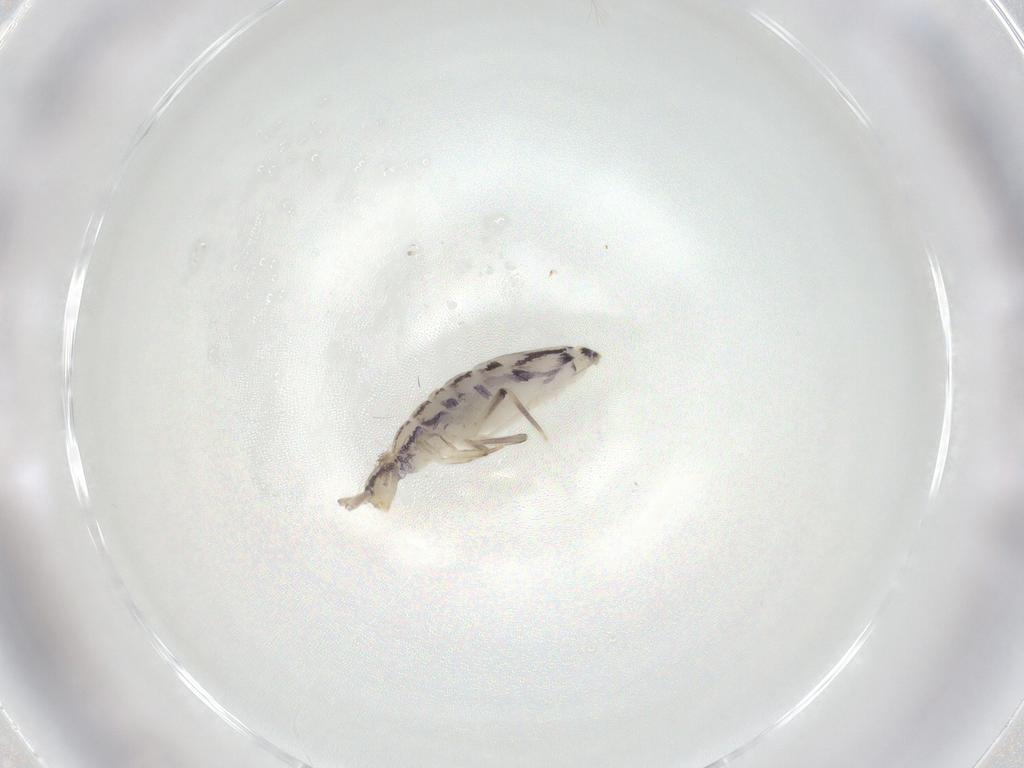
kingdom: Animalia
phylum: Arthropoda
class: Collembola
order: Entomobryomorpha
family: Entomobryidae
